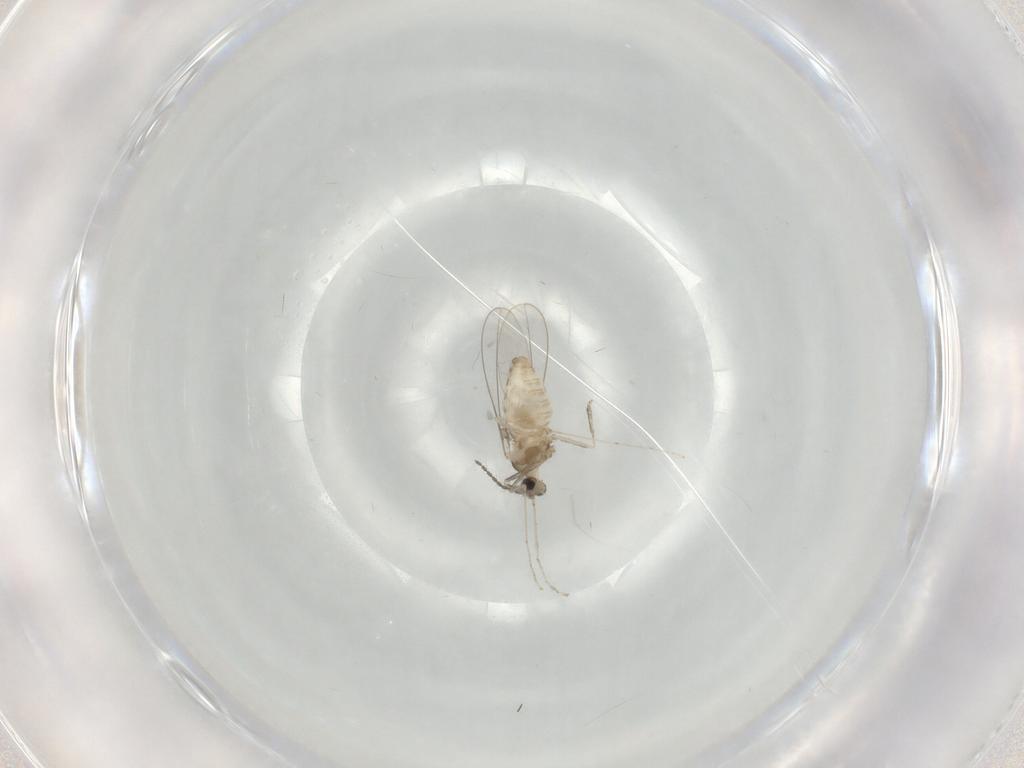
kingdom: Animalia
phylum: Arthropoda
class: Insecta
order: Diptera
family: Cecidomyiidae
